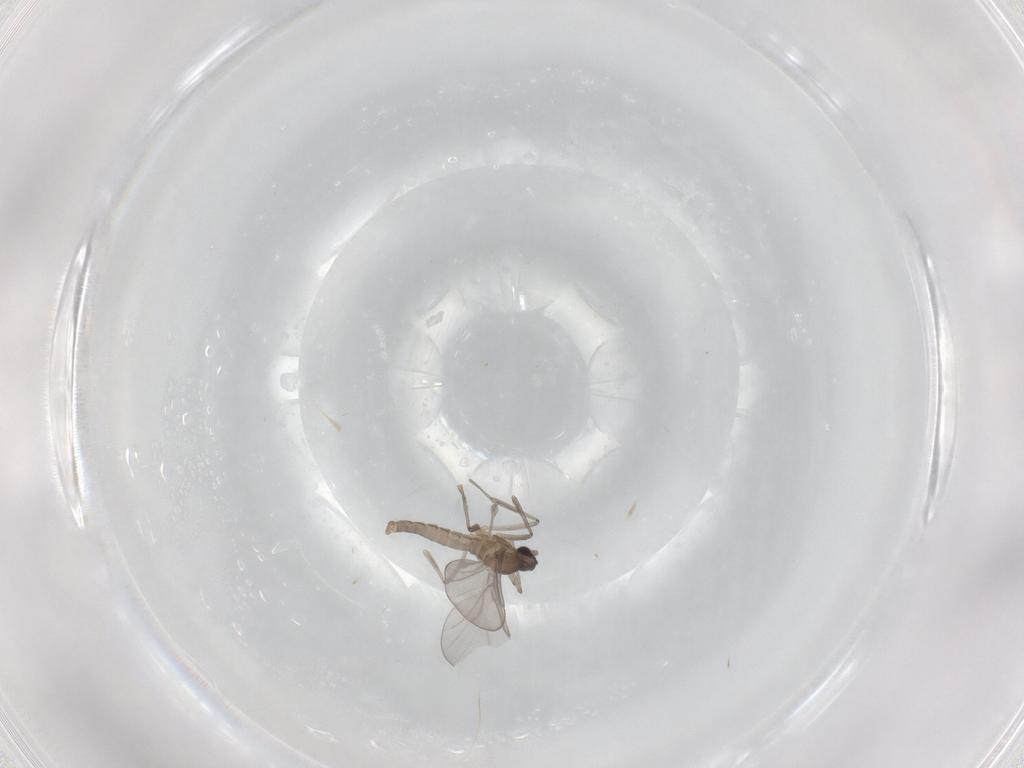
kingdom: Animalia
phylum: Arthropoda
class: Insecta
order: Diptera
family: Cecidomyiidae
